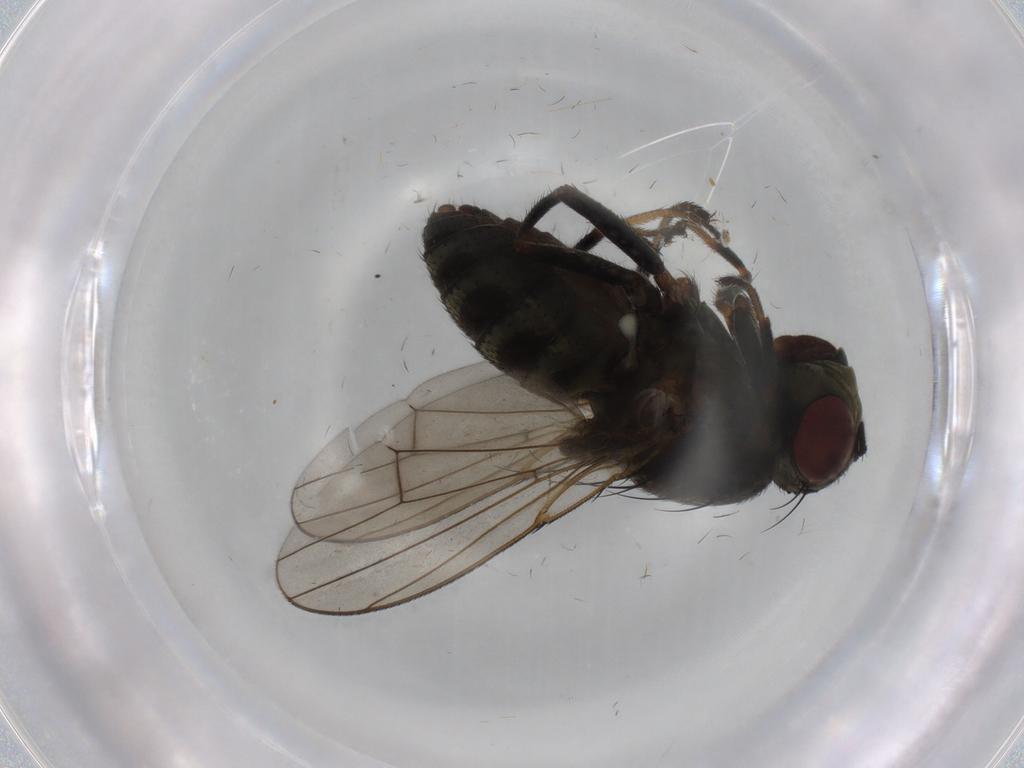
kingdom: Animalia
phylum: Arthropoda
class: Insecta
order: Diptera
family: Ephydridae
